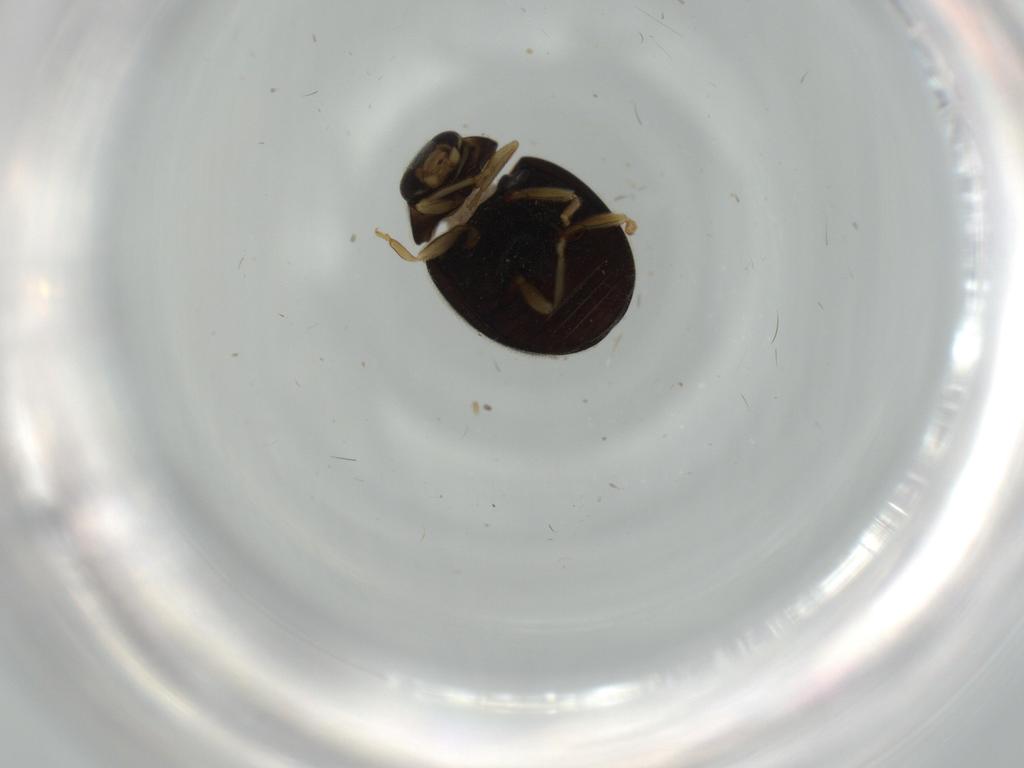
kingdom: Animalia
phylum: Arthropoda
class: Insecta
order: Coleoptera
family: Coccinellidae
